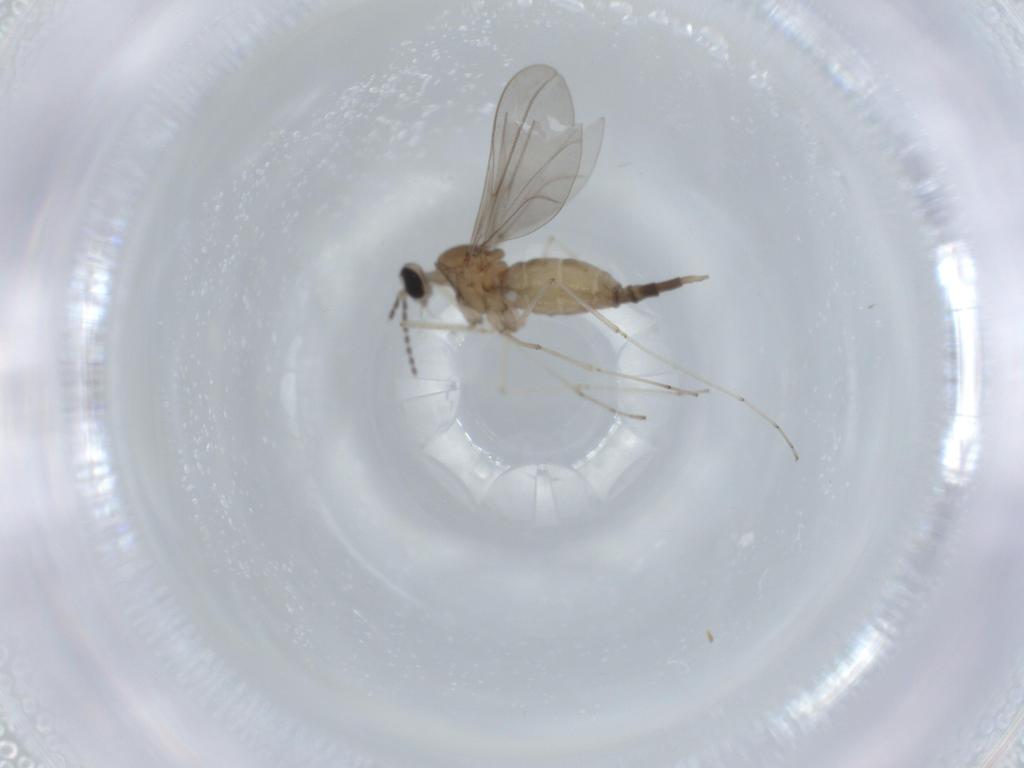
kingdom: Animalia
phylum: Arthropoda
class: Insecta
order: Diptera
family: Cecidomyiidae
